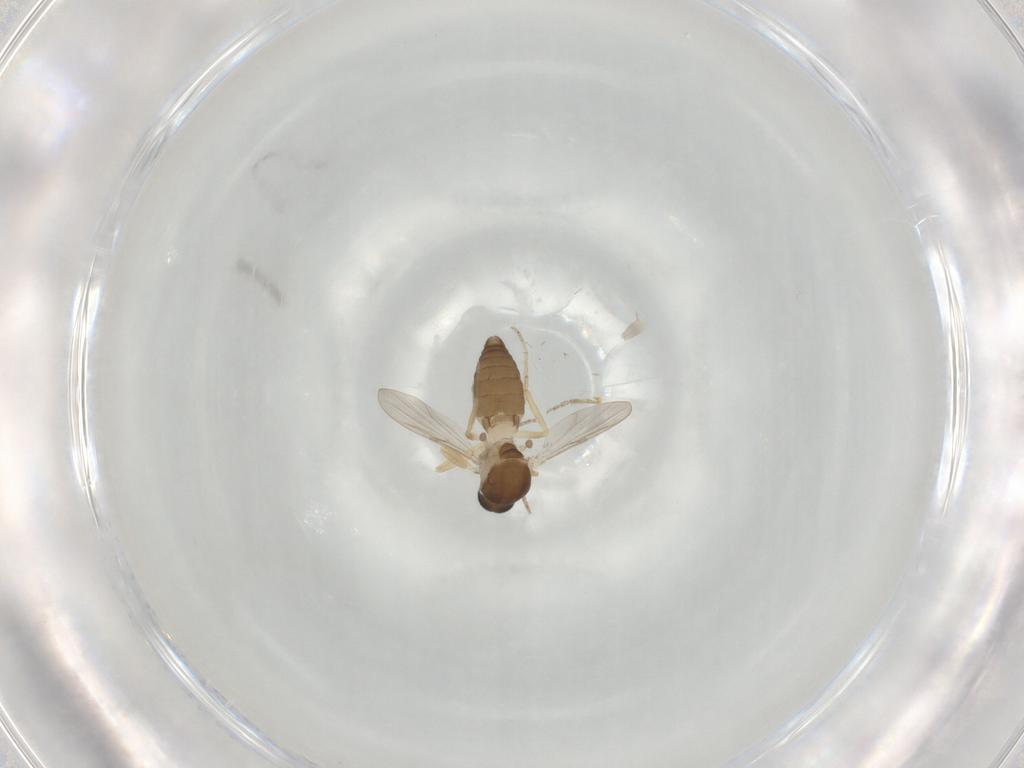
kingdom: Animalia
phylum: Arthropoda
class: Insecta
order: Diptera
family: Ceratopogonidae
